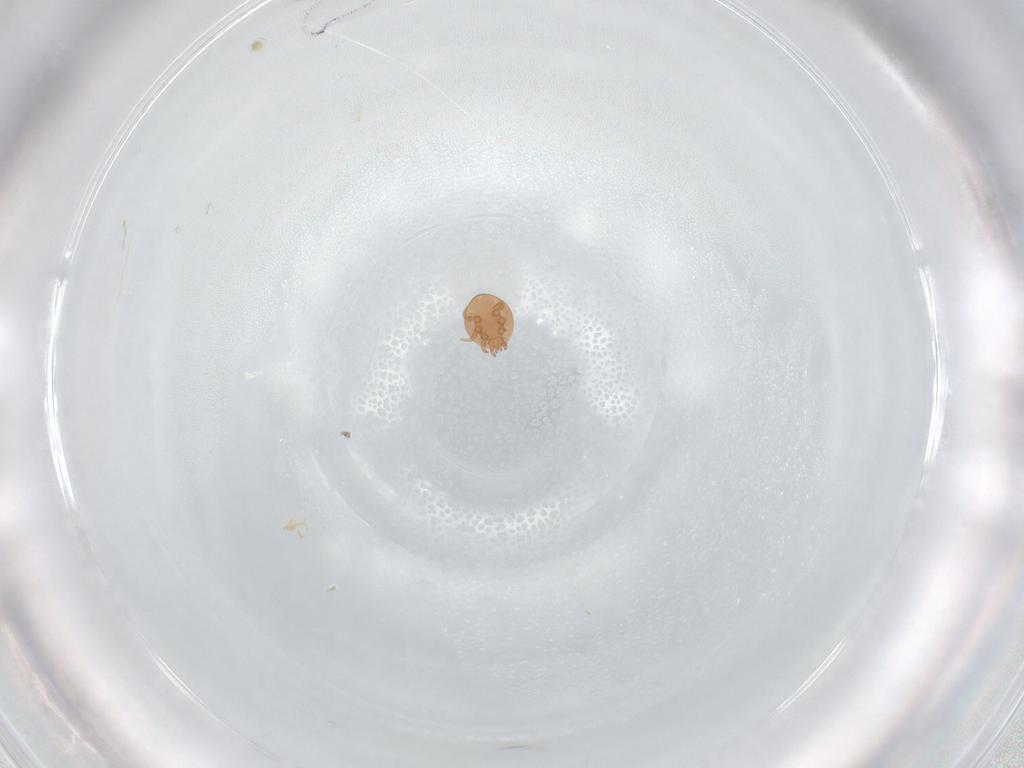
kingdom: Animalia
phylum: Arthropoda
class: Arachnida
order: Mesostigmata
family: Trematuridae
